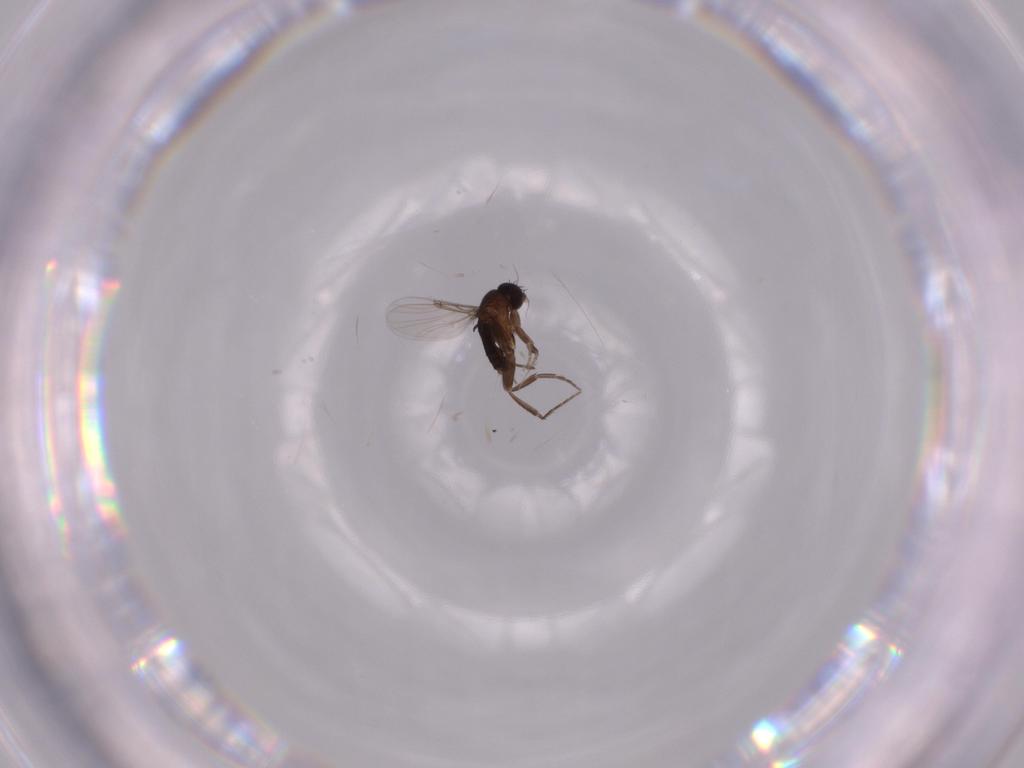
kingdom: Animalia
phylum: Arthropoda
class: Insecta
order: Diptera
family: Phoridae
